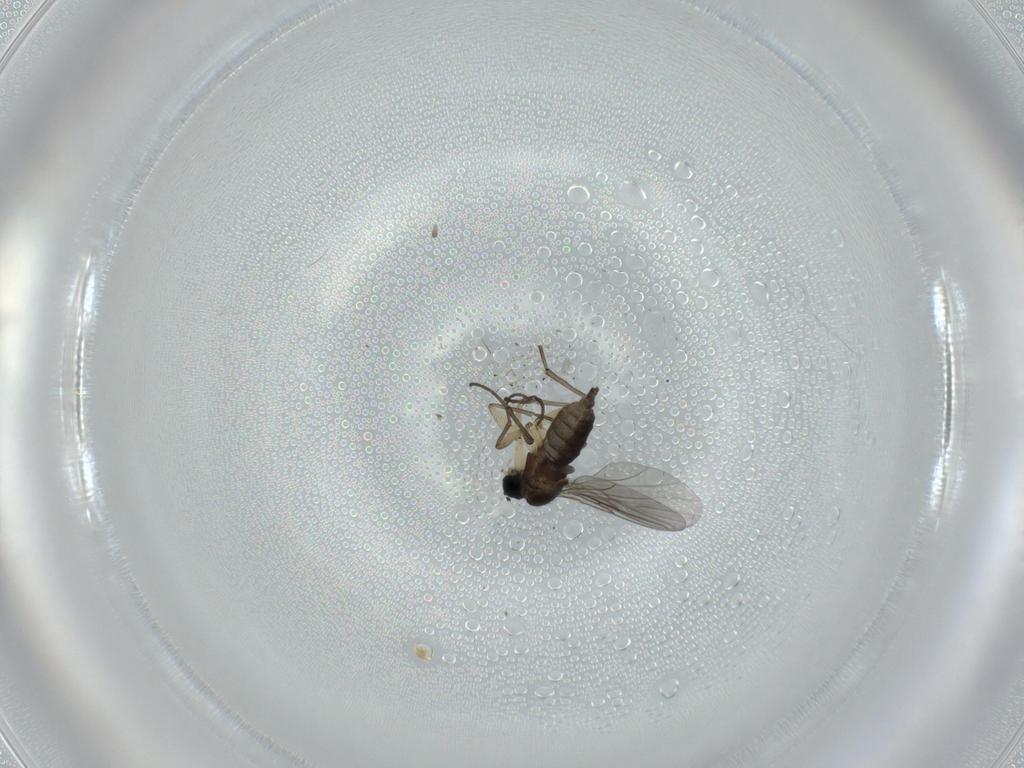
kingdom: Animalia
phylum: Arthropoda
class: Insecta
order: Diptera
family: Sciaridae
